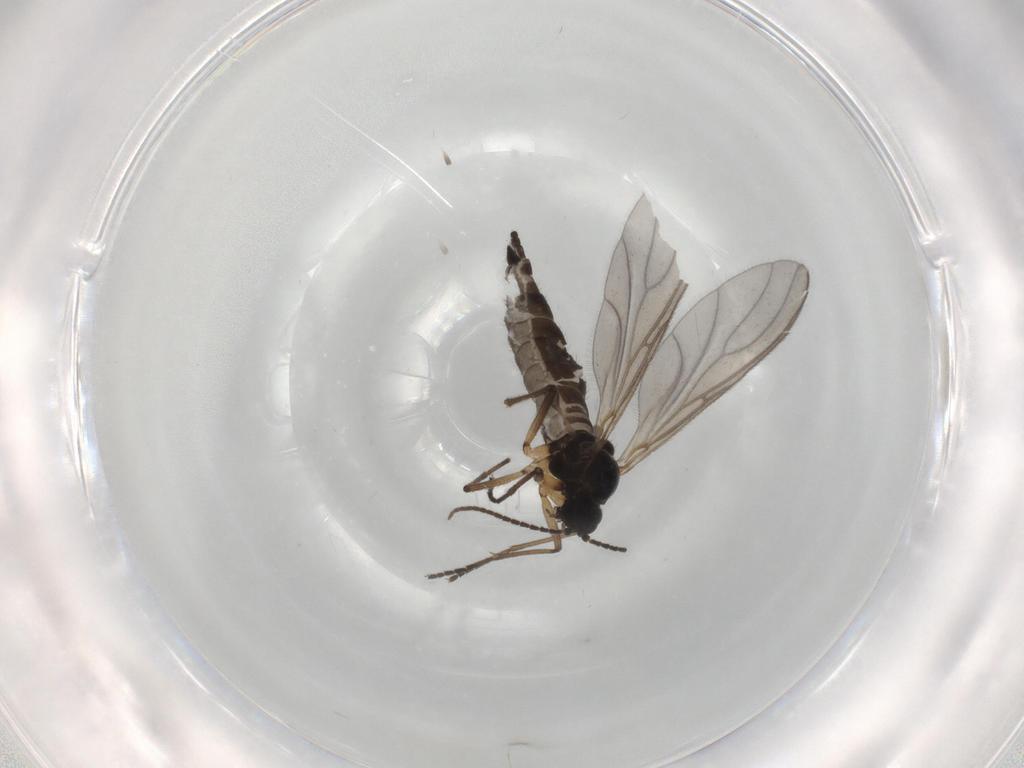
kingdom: Animalia
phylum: Arthropoda
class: Insecta
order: Diptera
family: Sciaridae
